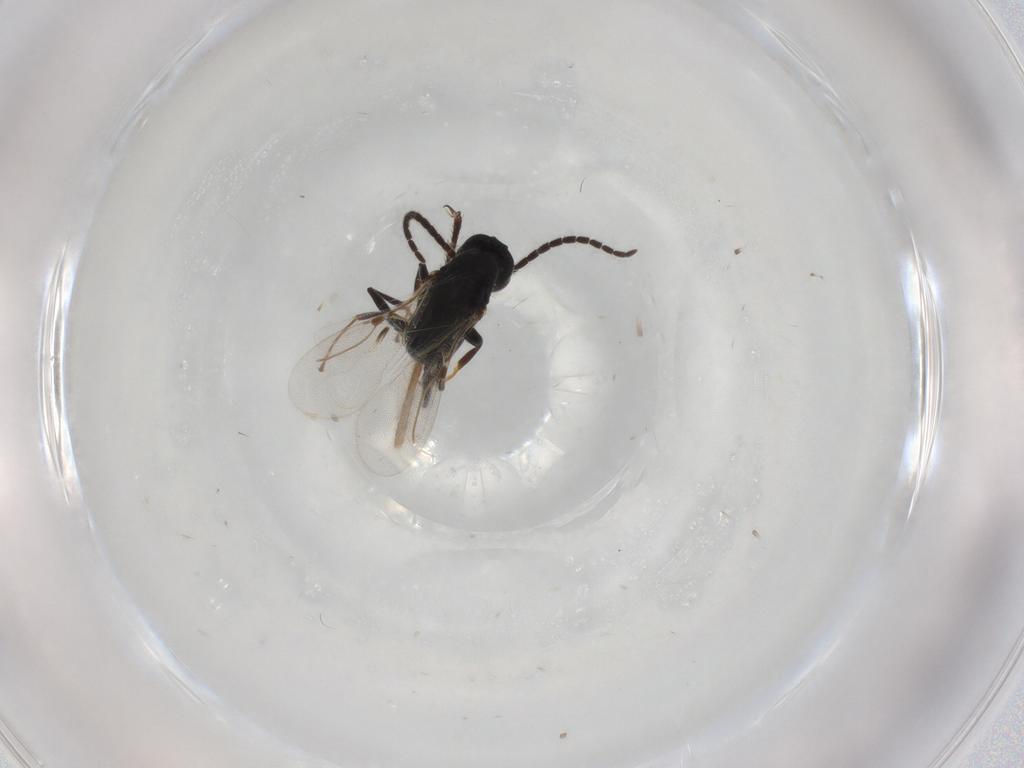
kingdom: Animalia
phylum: Arthropoda
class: Insecta
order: Hymenoptera
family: Bethylidae
